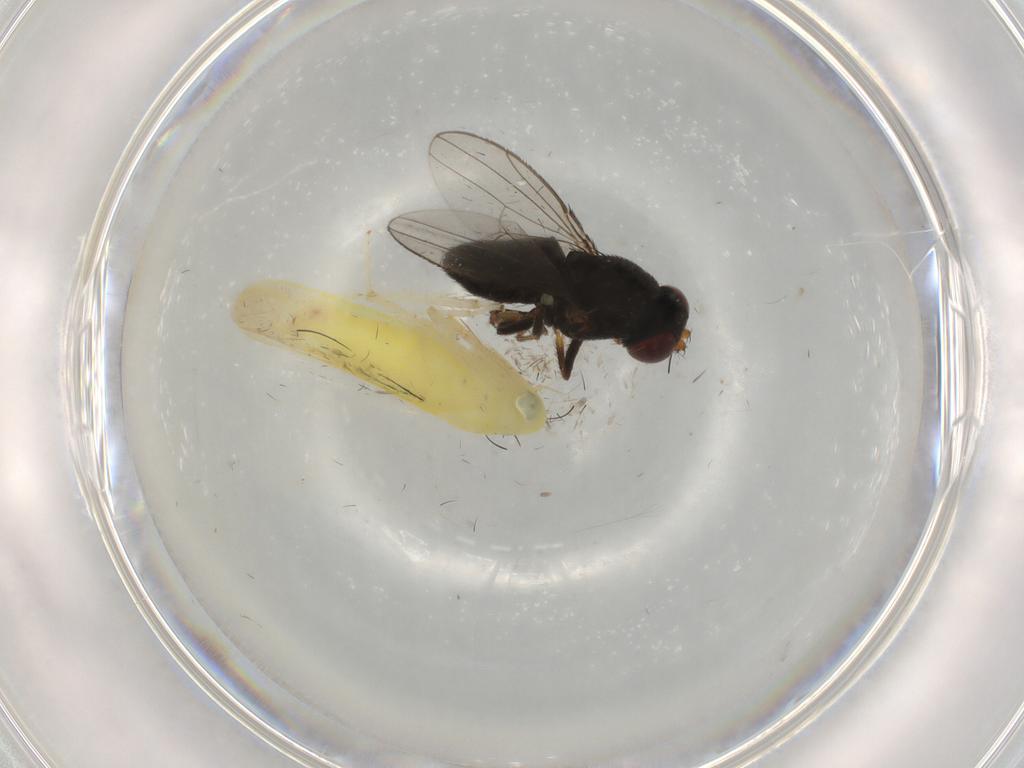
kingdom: Animalia
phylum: Arthropoda
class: Insecta
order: Diptera
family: Ephydridae
